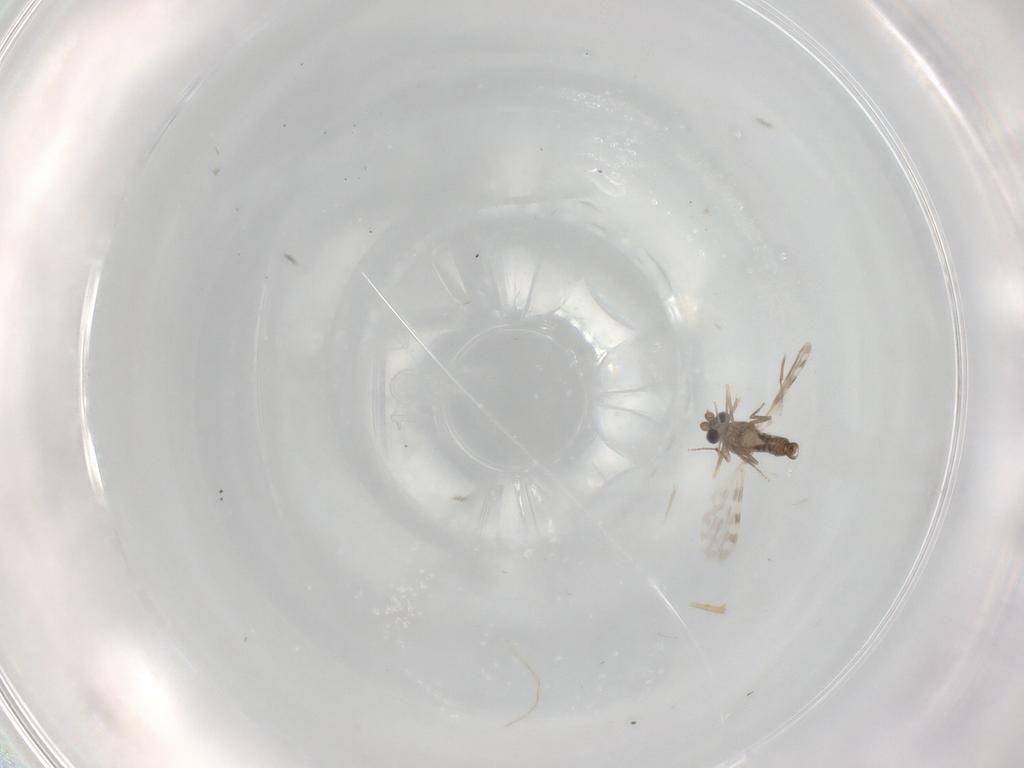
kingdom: Animalia
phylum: Arthropoda
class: Insecta
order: Diptera
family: Ceratopogonidae
